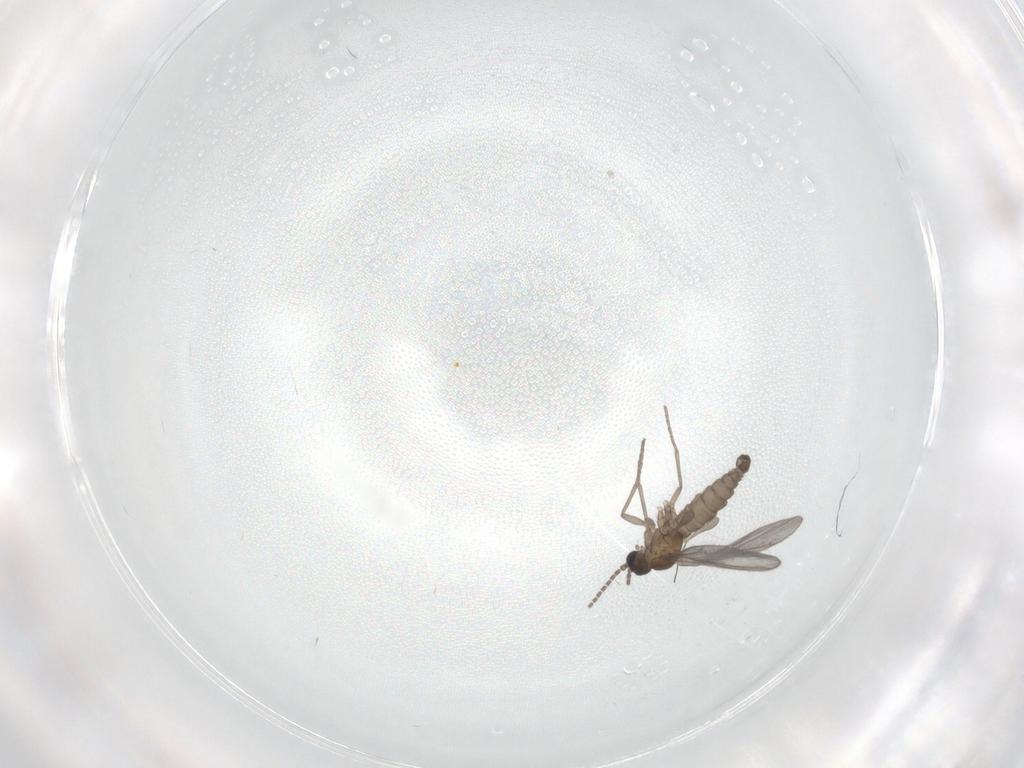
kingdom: Animalia
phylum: Arthropoda
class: Insecta
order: Diptera
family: Sciaridae
